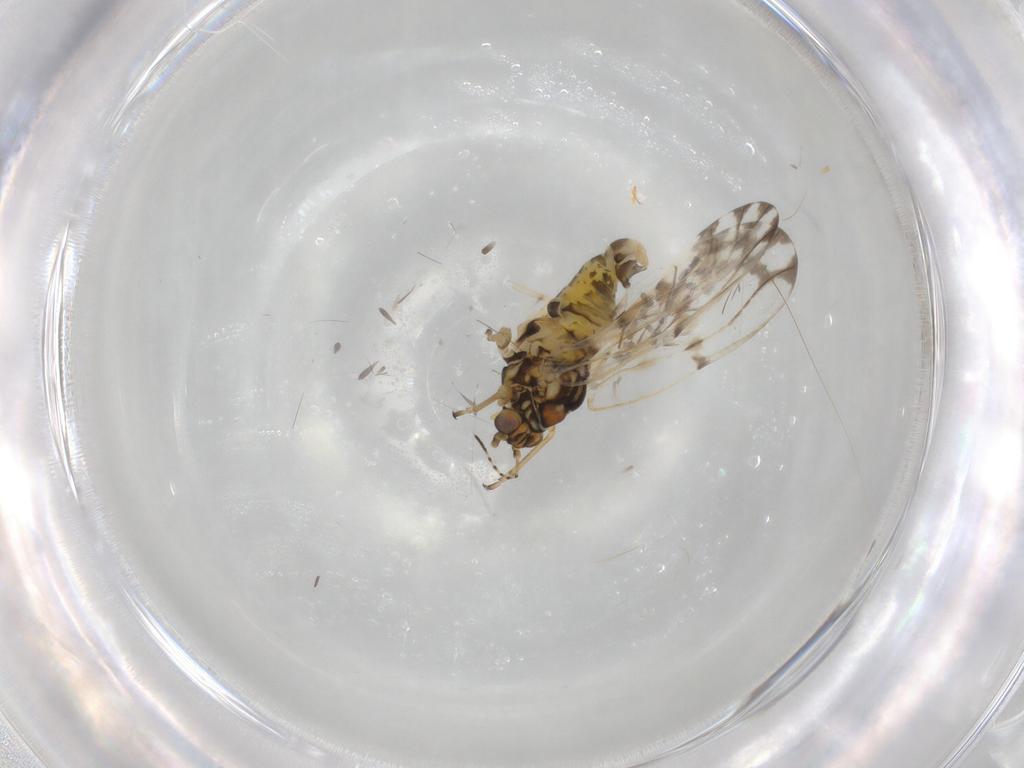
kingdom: Animalia
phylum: Arthropoda
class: Insecta
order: Hemiptera
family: Psylloidea_incertae_sedis
